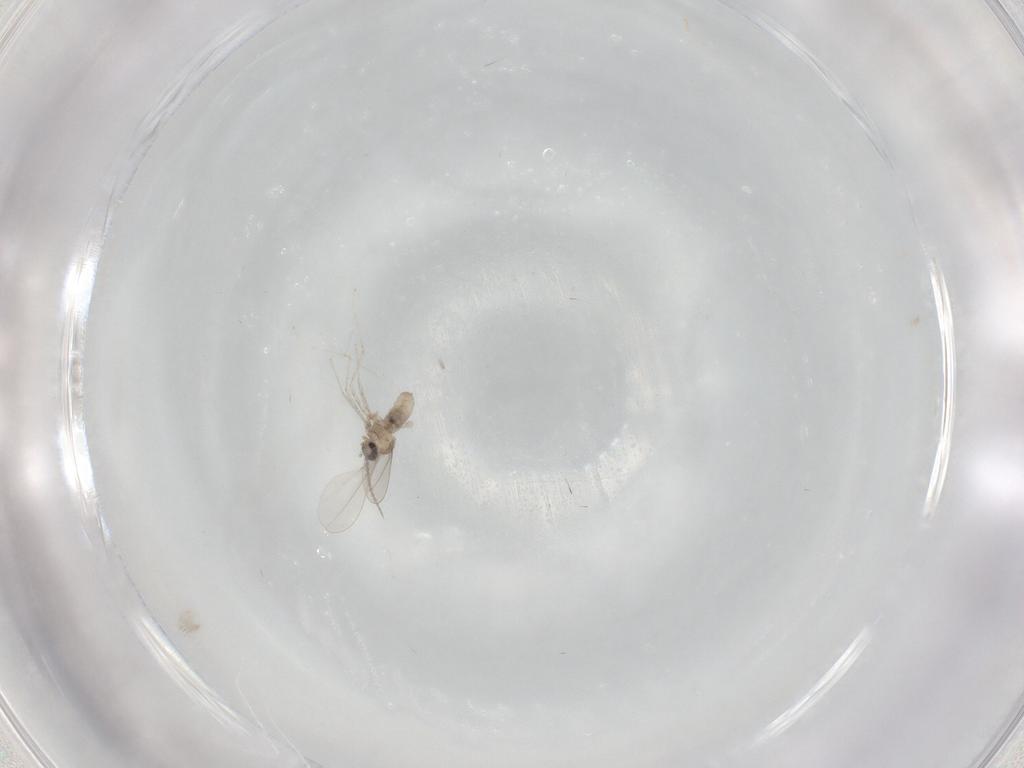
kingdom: Animalia
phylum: Arthropoda
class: Insecta
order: Diptera
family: Cecidomyiidae
